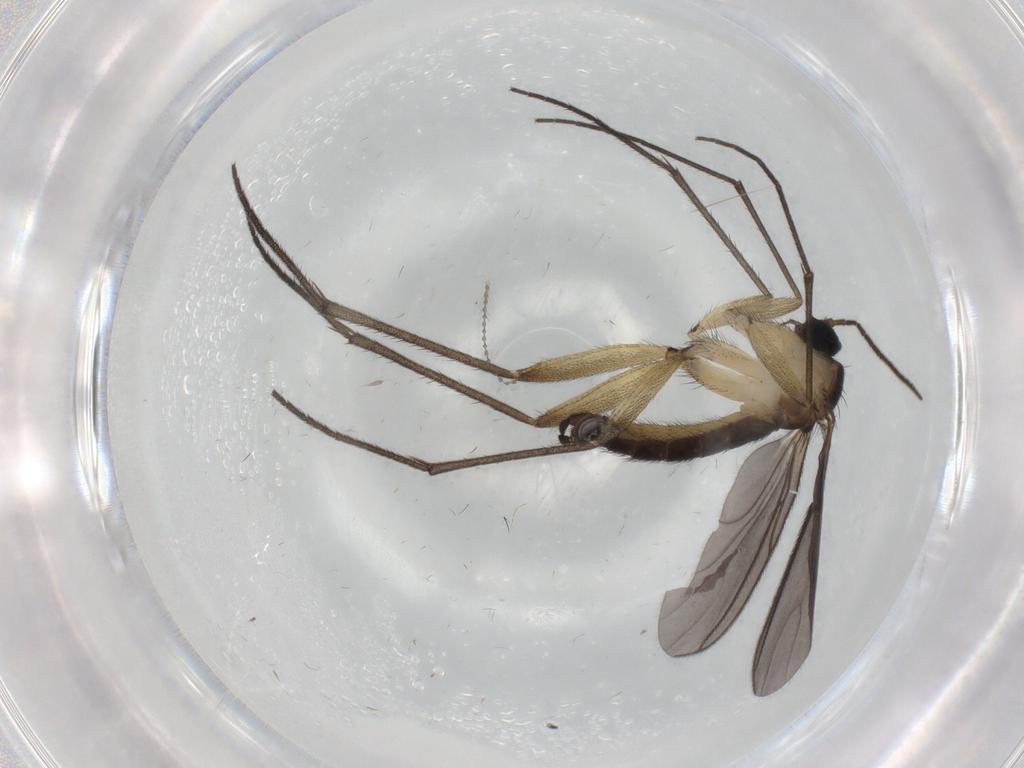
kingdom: Animalia
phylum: Arthropoda
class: Insecta
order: Diptera
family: Sciaridae
